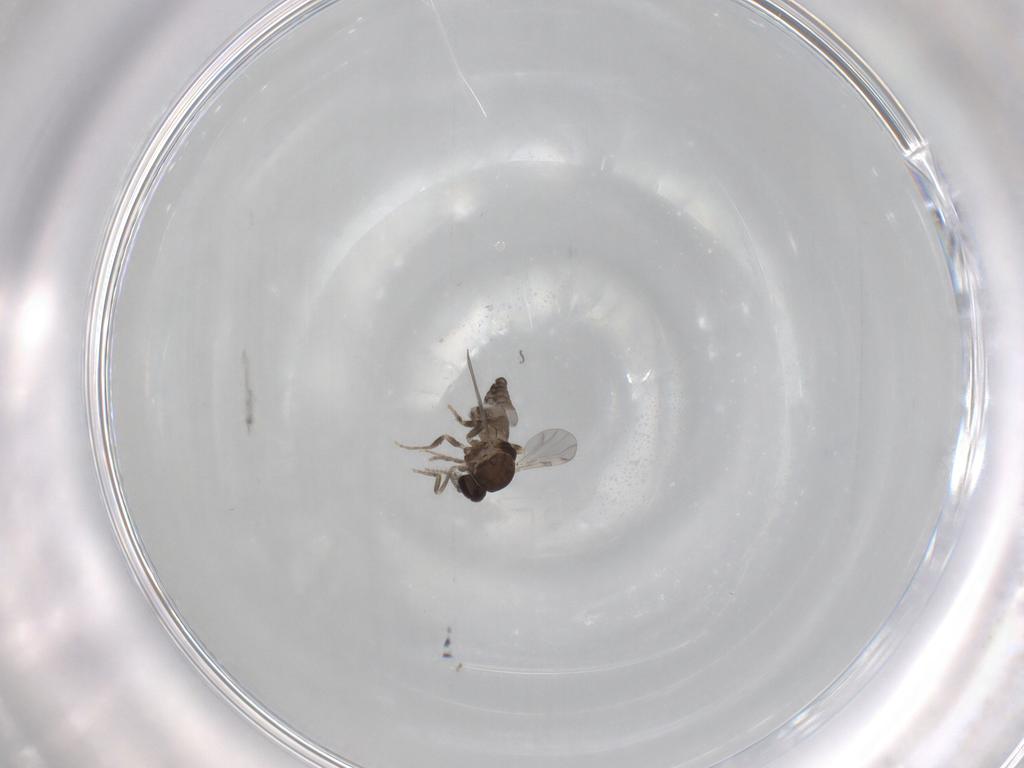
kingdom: Animalia
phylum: Arthropoda
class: Insecta
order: Diptera
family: Ceratopogonidae
